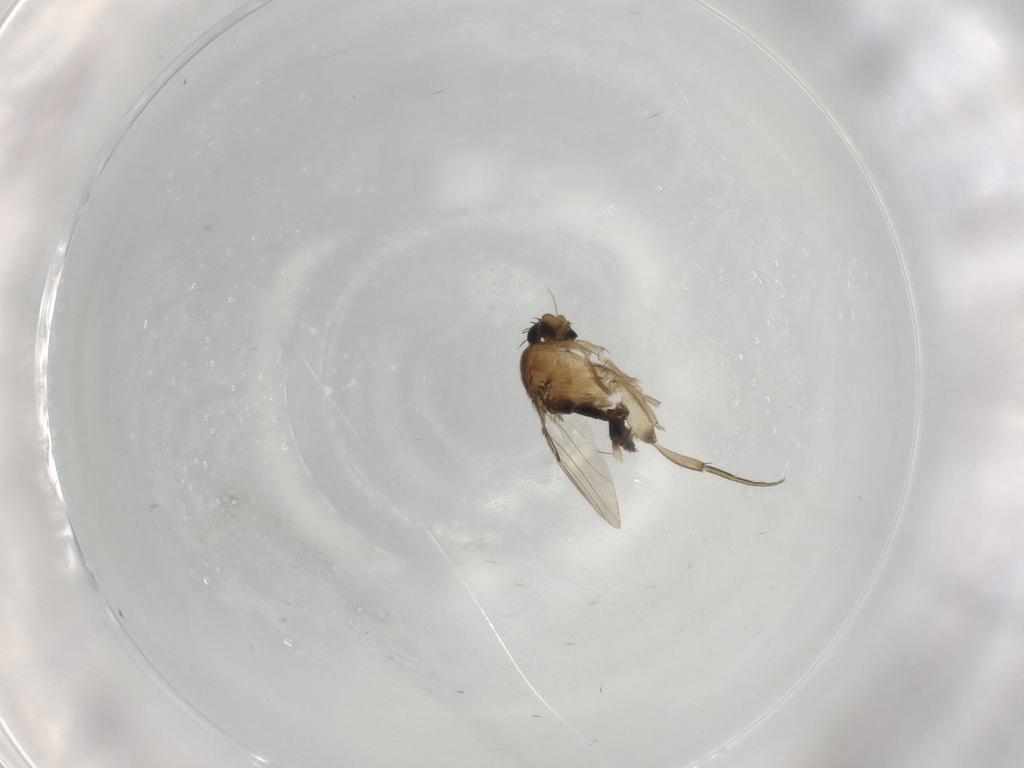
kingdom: Animalia
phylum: Arthropoda
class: Insecta
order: Diptera
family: Phoridae
